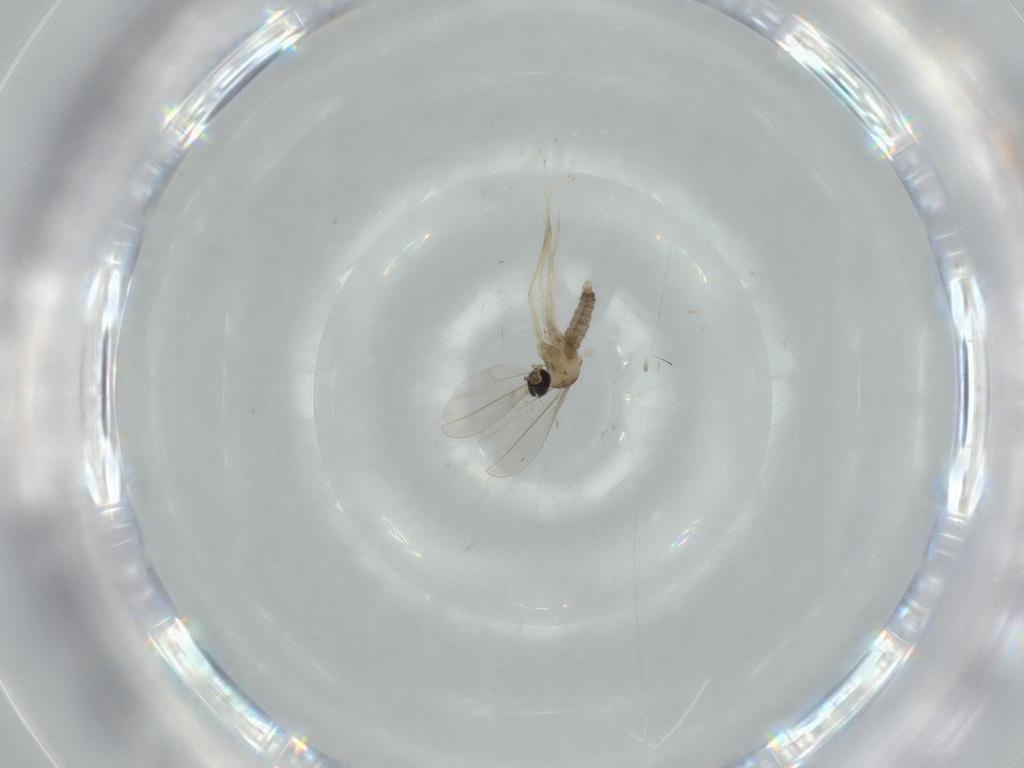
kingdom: Animalia
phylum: Arthropoda
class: Insecta
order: Diptera
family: Cecidomyiidae
